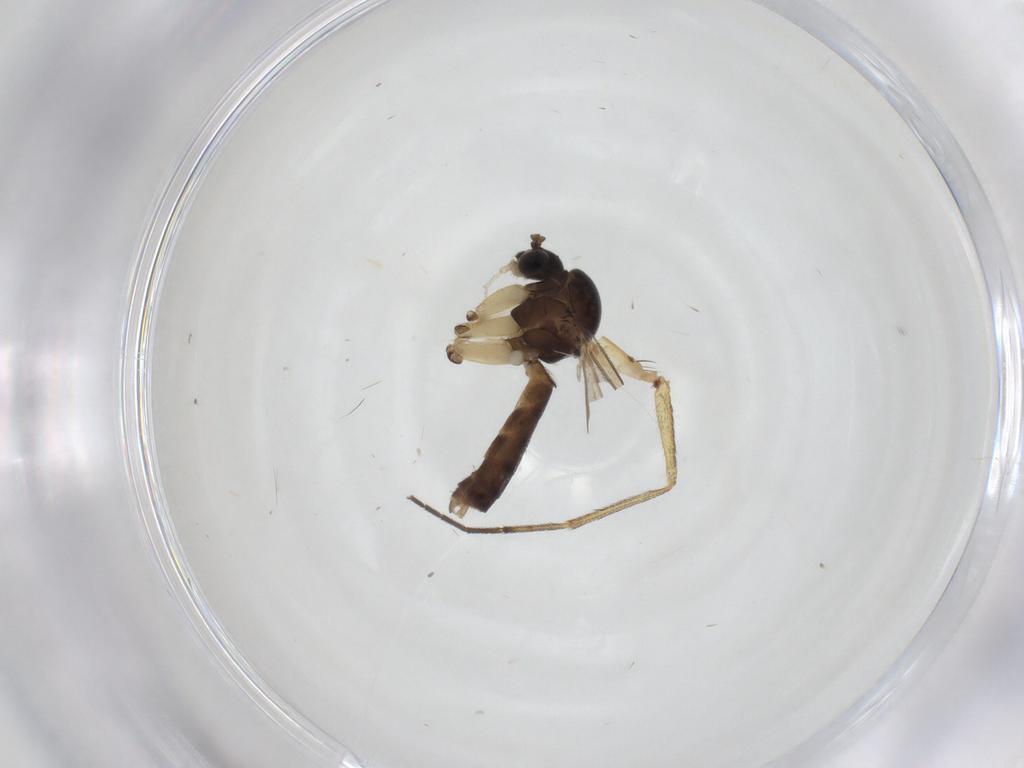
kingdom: Animalia
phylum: Arthropoda
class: Insecta
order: Diptera
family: Dolichopodidae
